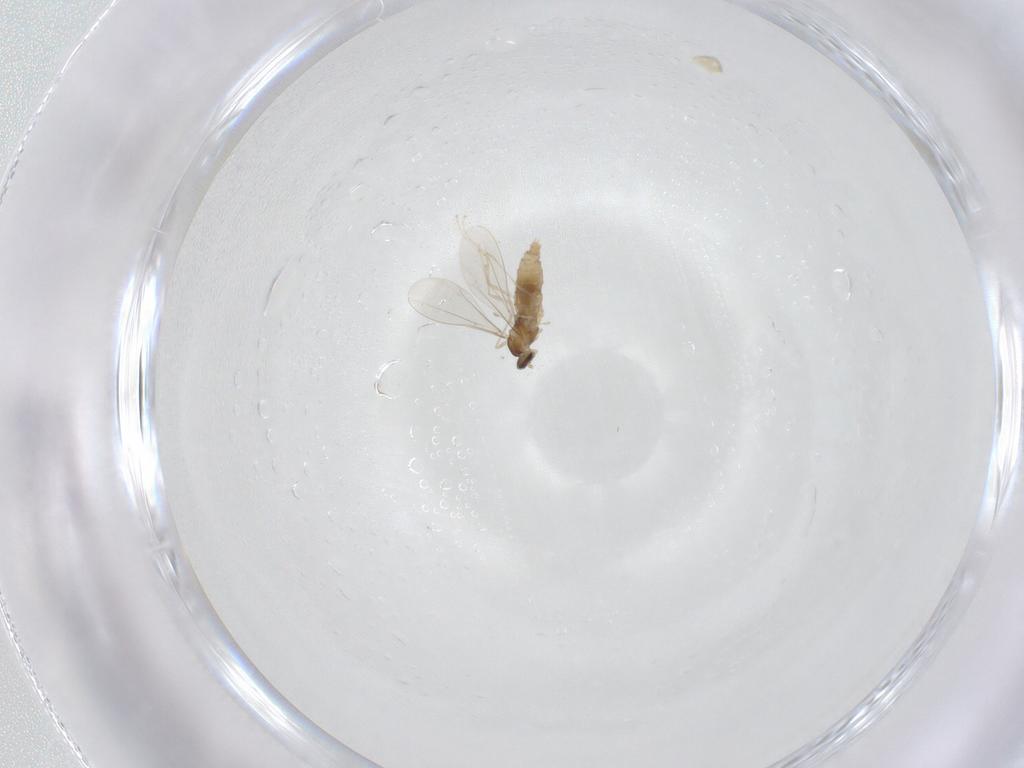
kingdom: Animalia
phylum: Arthropoda
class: Insecta
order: Diptera
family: Cecidomyiidae
